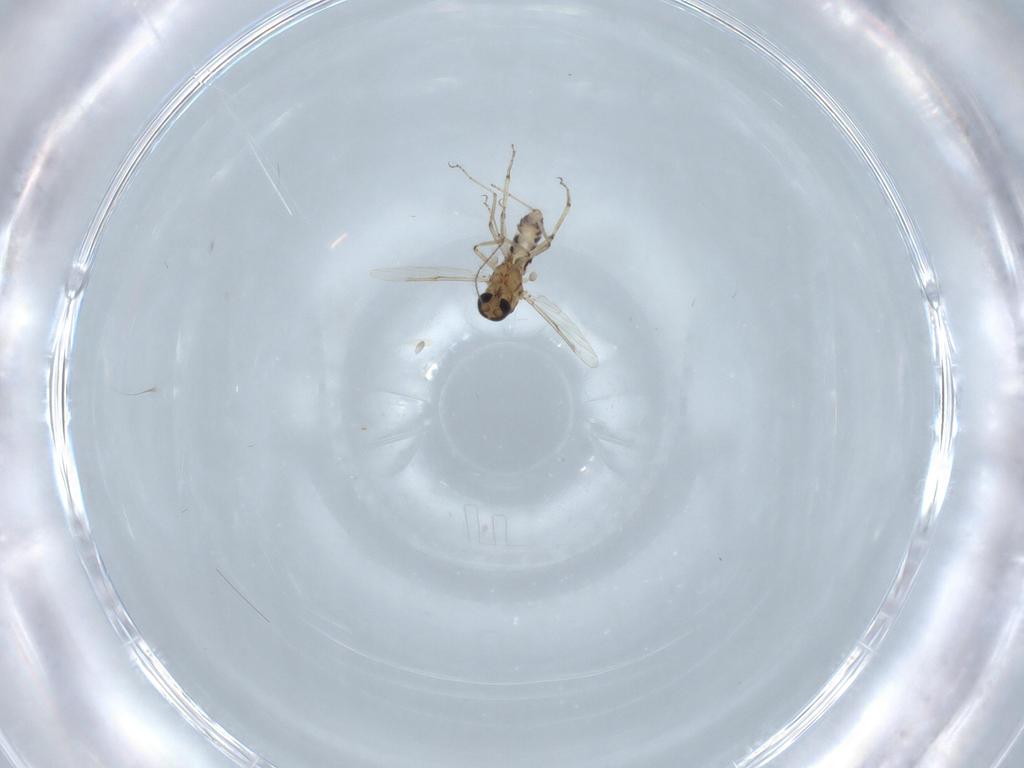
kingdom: Animalia
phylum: Arthropoda
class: Insecta
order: Diptera
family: Ceratopogonidae
